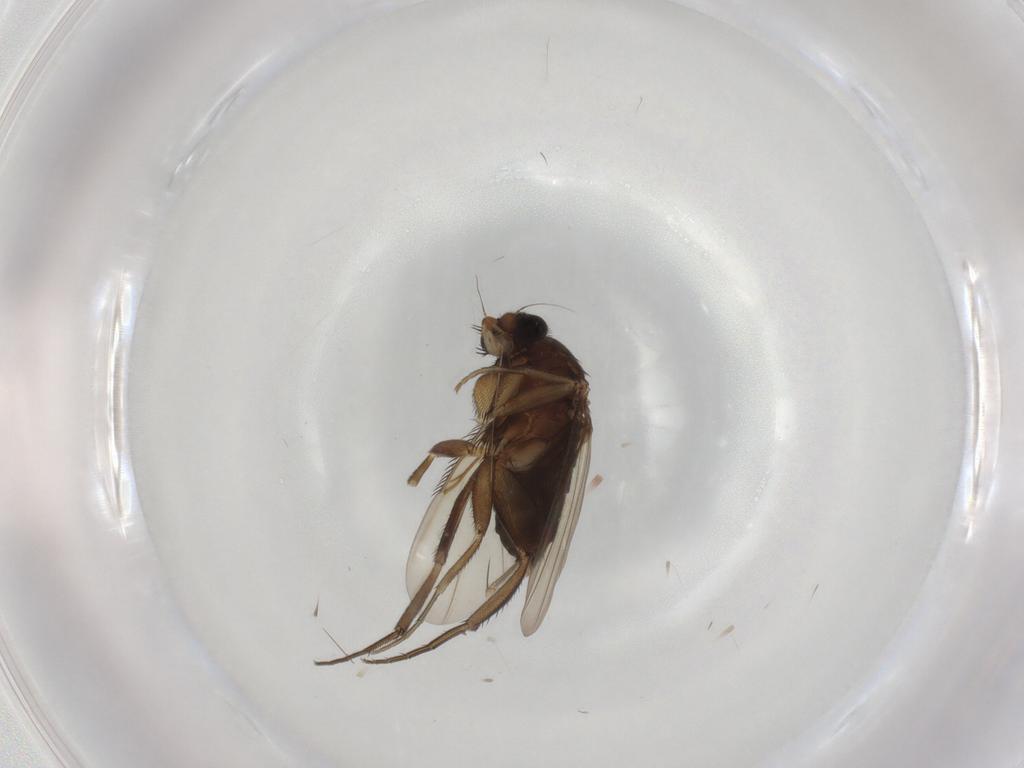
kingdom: Animalia
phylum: Arthropoda
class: Insecta
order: Diptera
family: Phoridae
